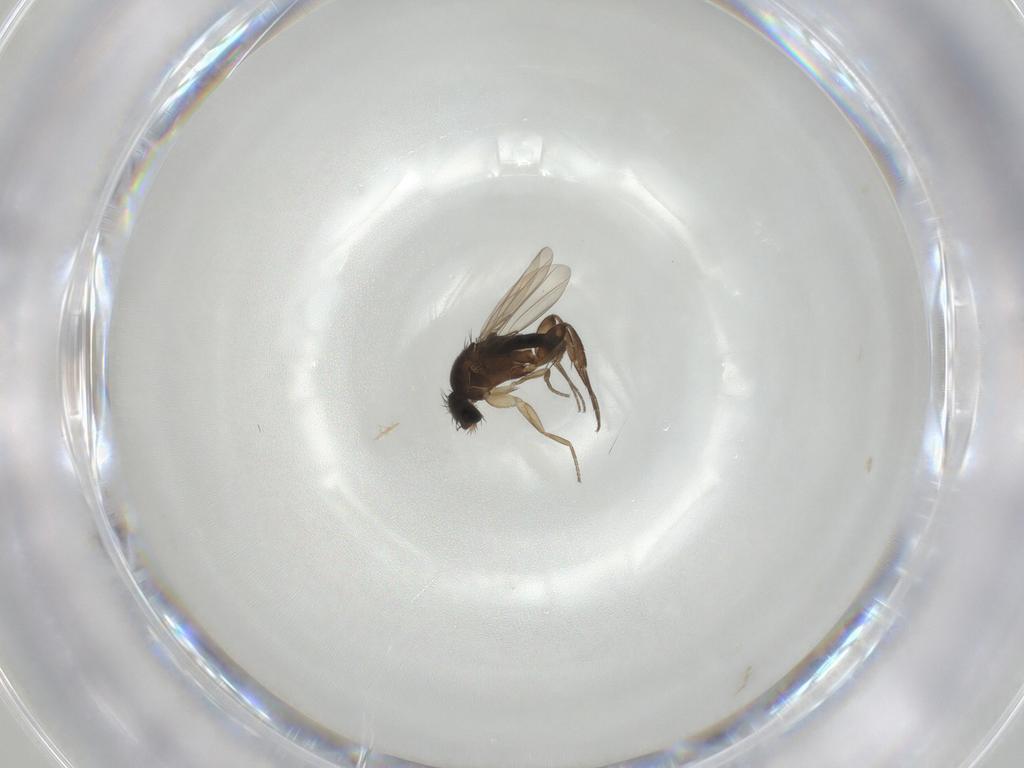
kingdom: Animalia
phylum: Arthropoda
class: Insecta
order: Diptera
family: Phoridae
